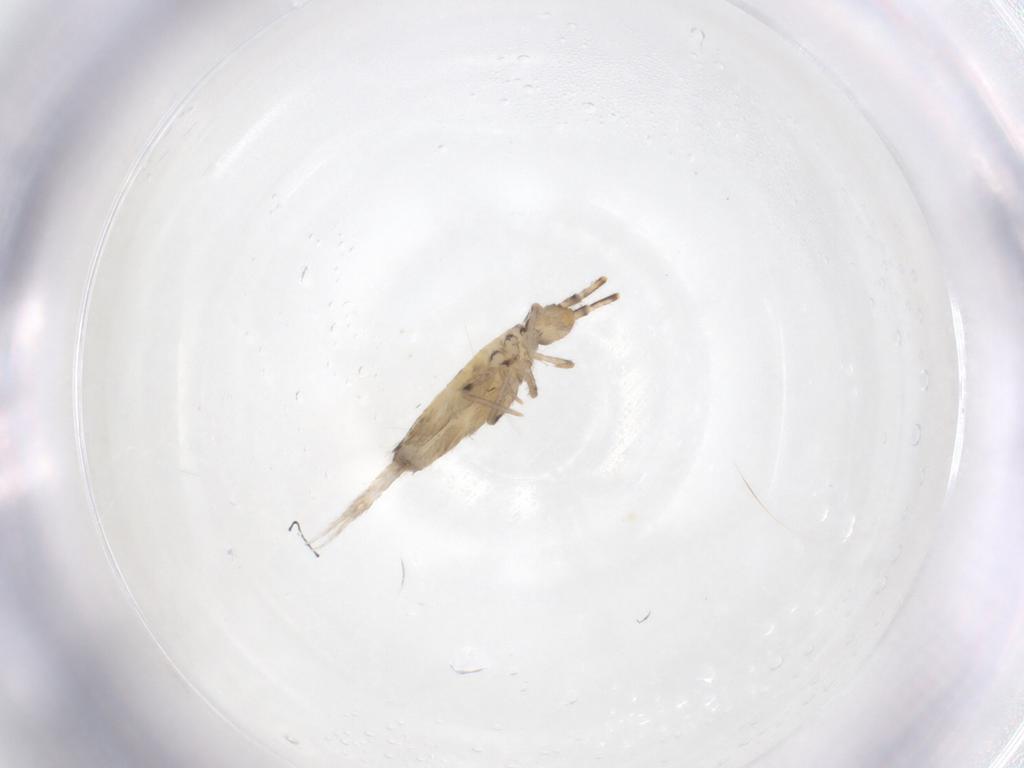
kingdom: Animalia
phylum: Arthropoda
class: Collembola
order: Entomobryomorpha
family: Entomobryidae
